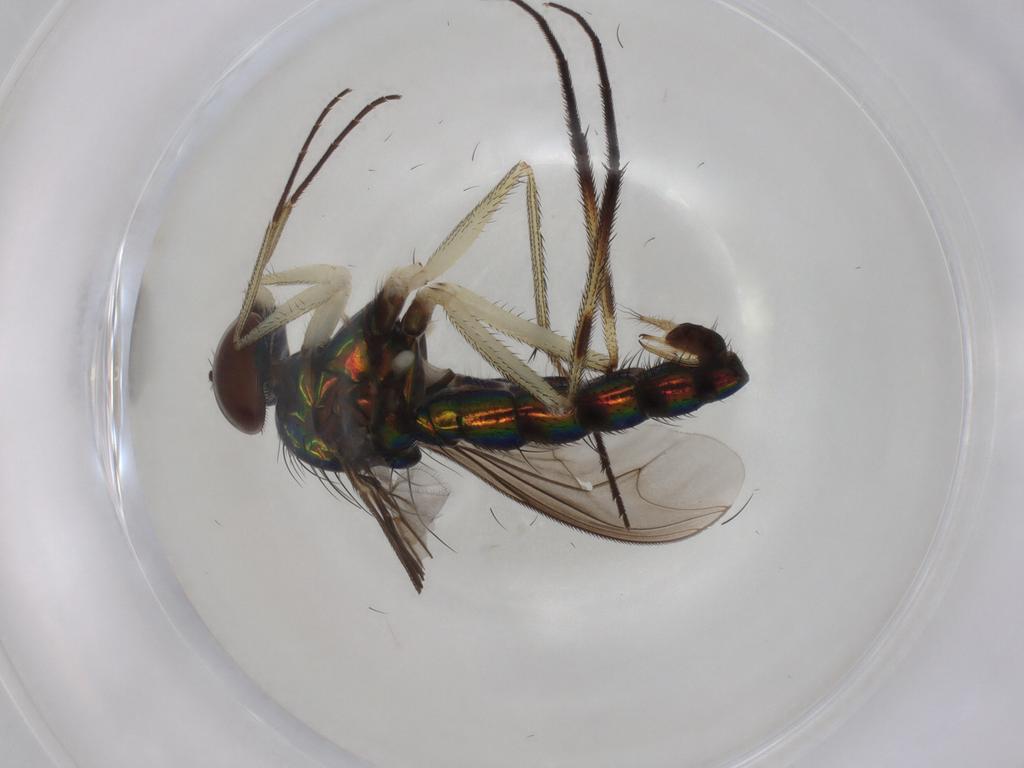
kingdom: Animalia
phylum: Arthropoda
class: Insecta
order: Diptera
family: Dolichopodidae
